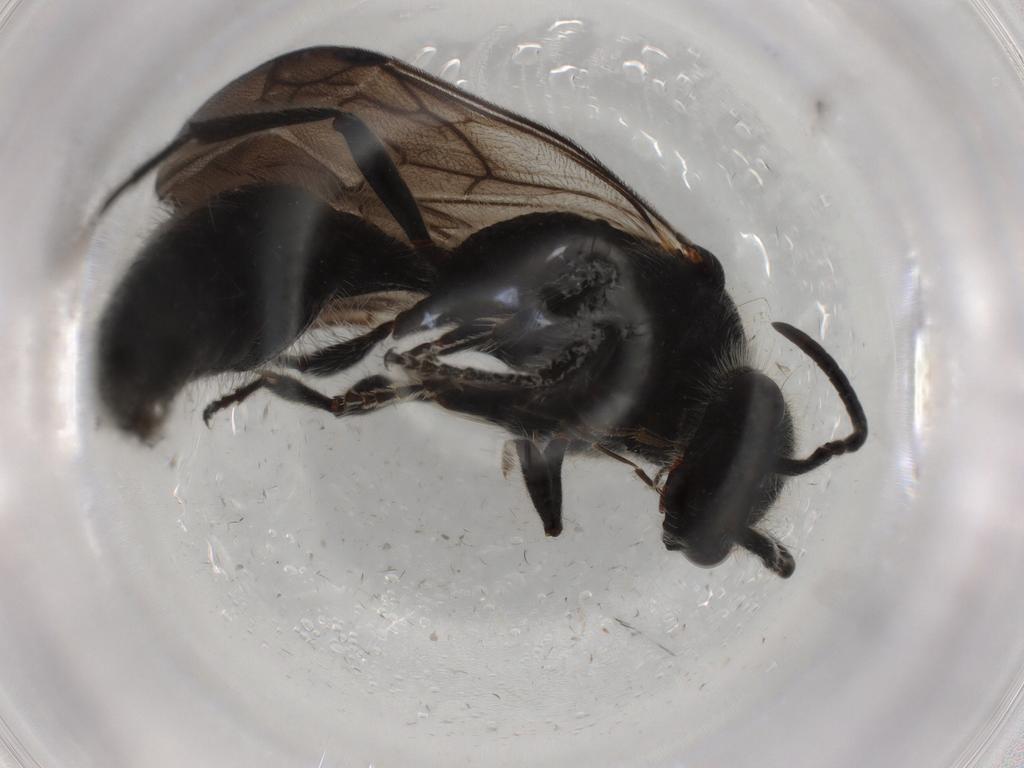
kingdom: Animalia
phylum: Arthropoda
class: Insecta
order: Hymenoptera
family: Mutillidae
